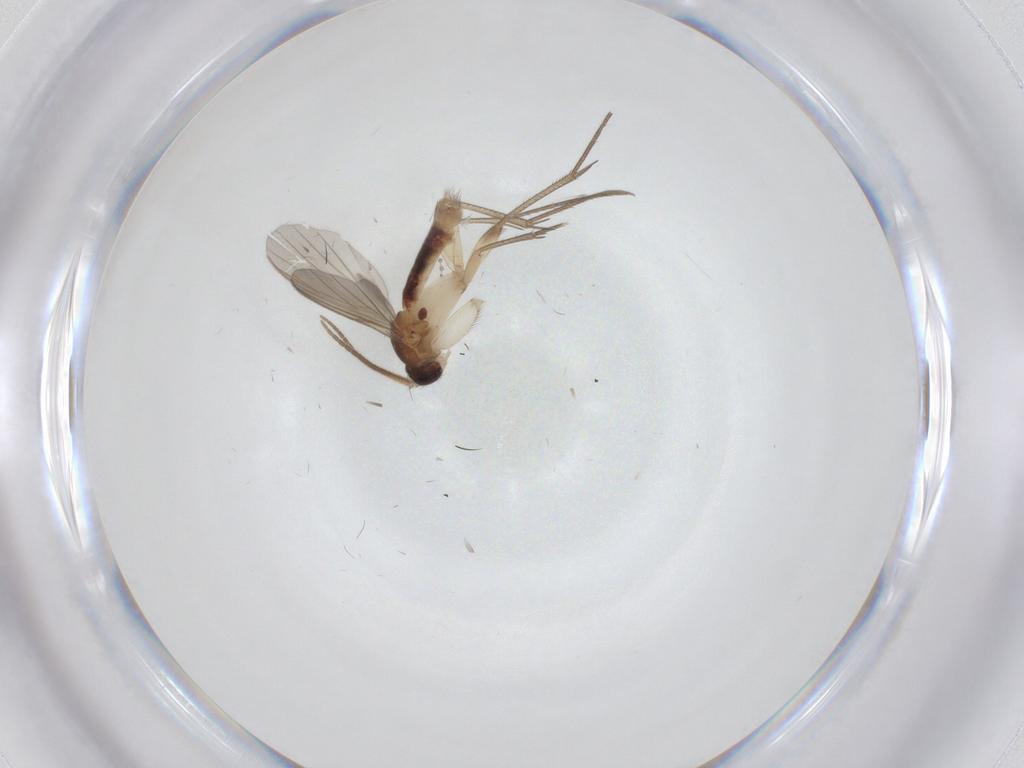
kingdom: Animalia
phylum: Arthropoda
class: Insecta
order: Diptera
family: Mycetophilidae
